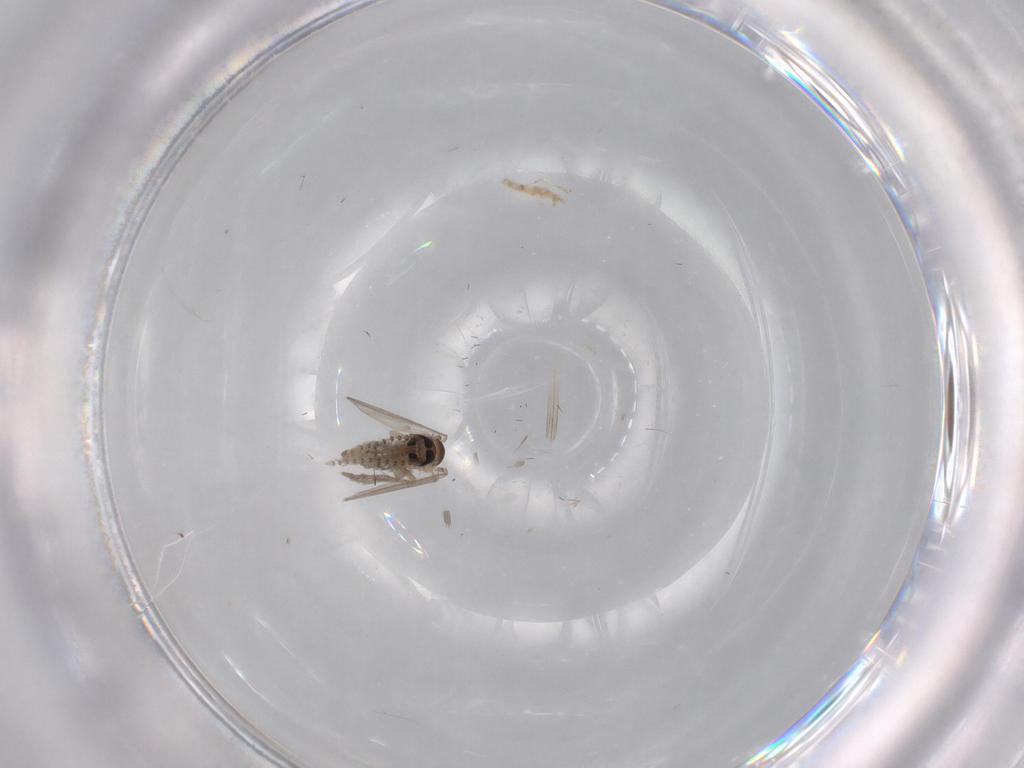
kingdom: Animalia
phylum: Arthropoda
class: Insecta
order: Diptera
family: Psychodidae
